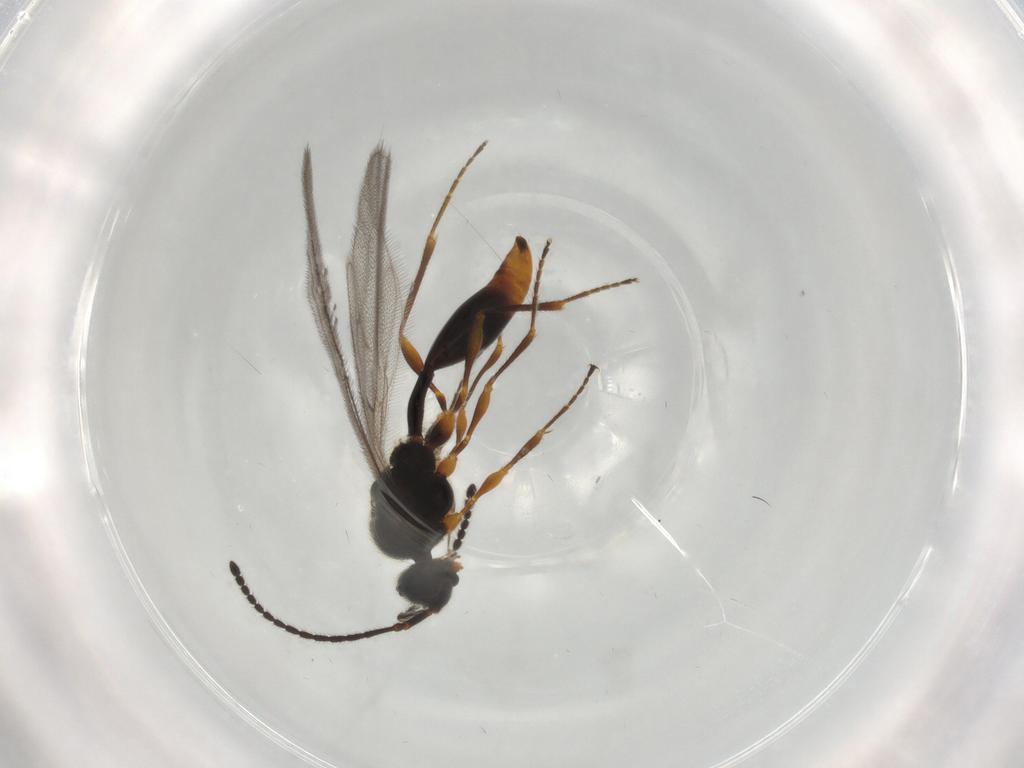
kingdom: Animalia
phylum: Arthropoda
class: Insecta
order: Hymenoptera
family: Diapriidae
